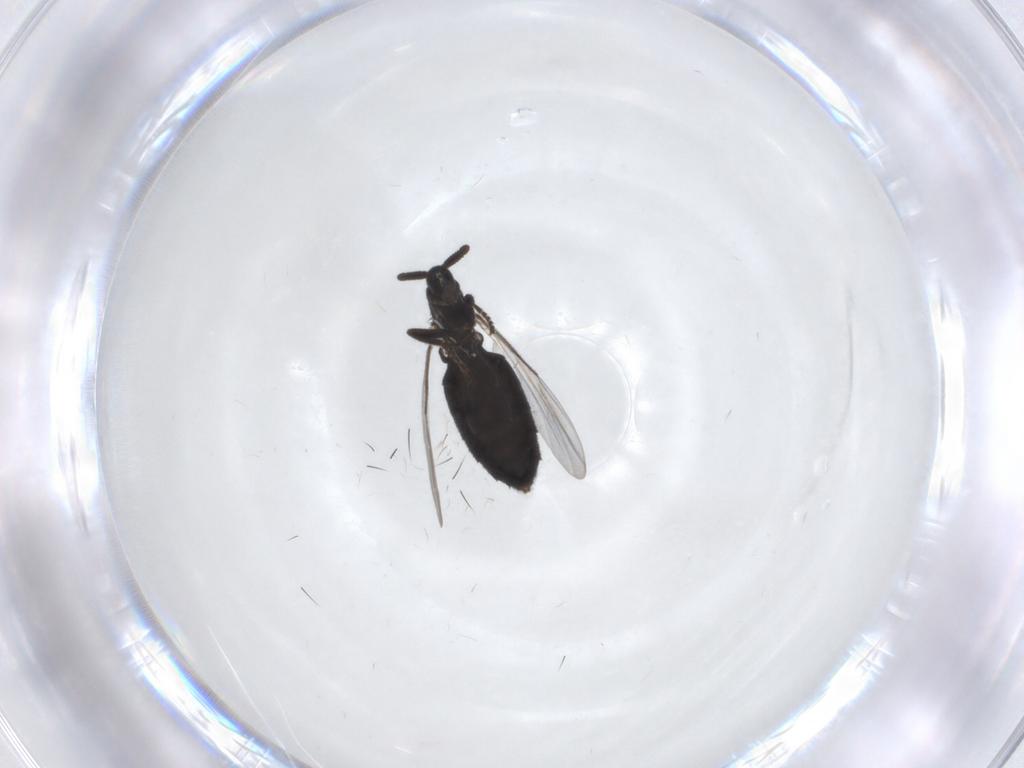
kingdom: Animalia
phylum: Arthropoda
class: Insecta
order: Diptera
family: Scatopsidae
